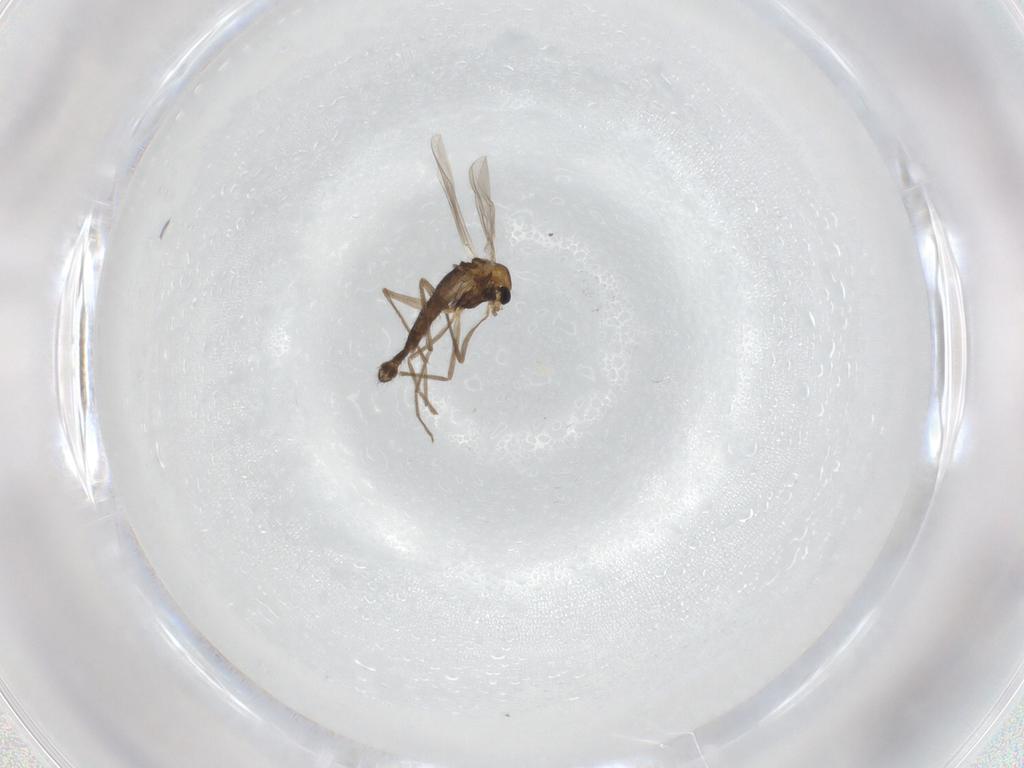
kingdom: Animalia
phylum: Arthropoda
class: Insecta
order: Diptera
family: Chironomidae
